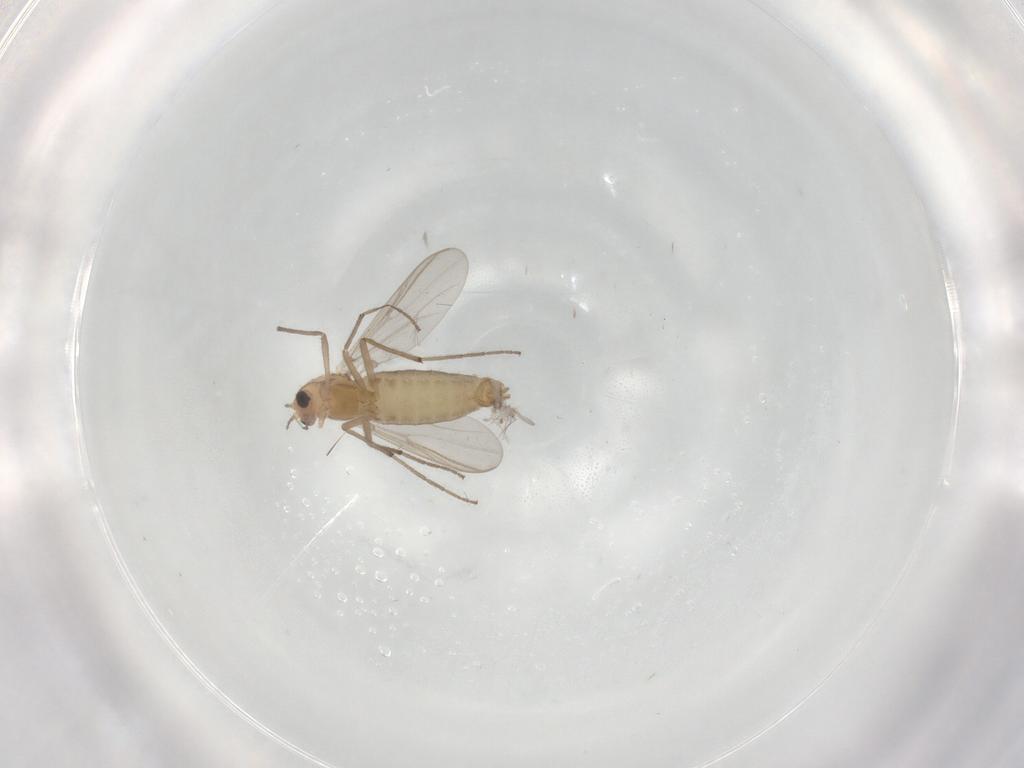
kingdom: Animalia
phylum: Arthropoda
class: Insecta
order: Diptera
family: Chironomidae
